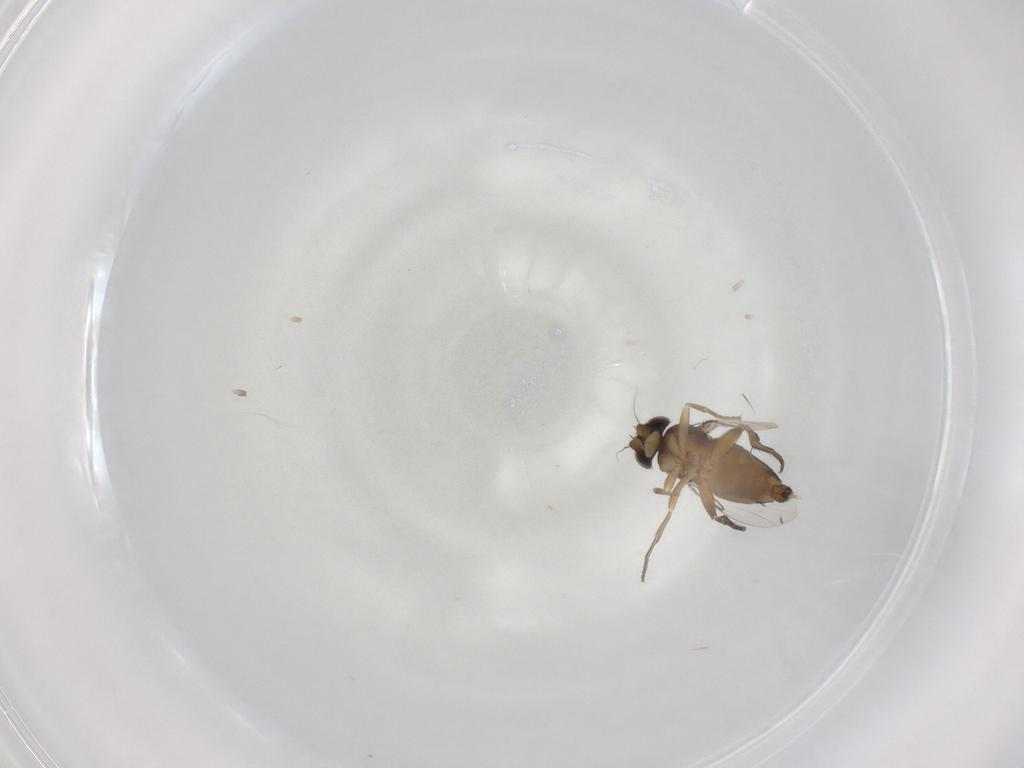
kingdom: Animalia
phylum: Arthropoda
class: Insecta
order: Diptera
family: Phoridae
